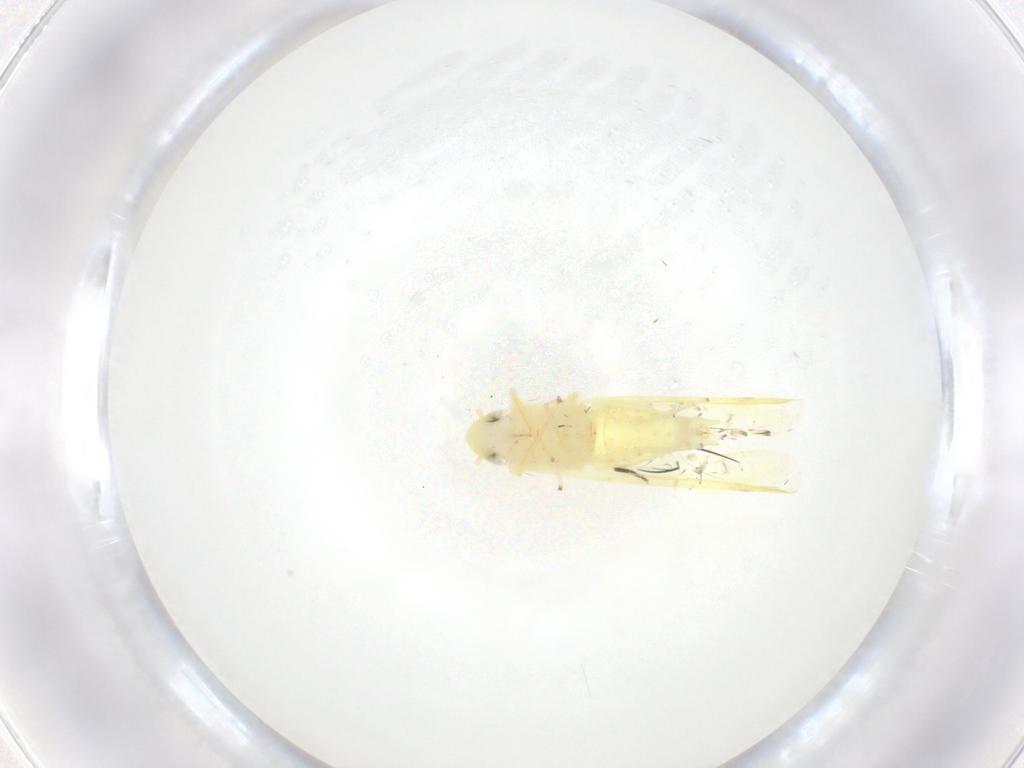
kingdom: Animalia
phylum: Arthropoda
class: Insecta
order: Hemiptera
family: Cicadellidae
